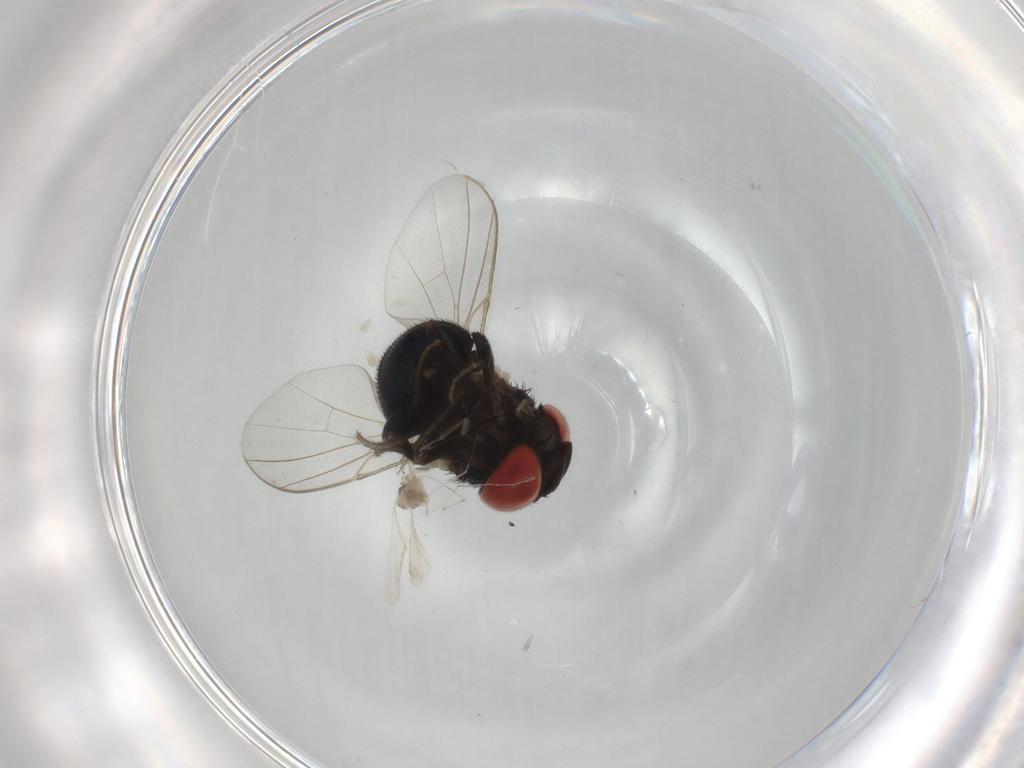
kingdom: Animalia
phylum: Arthropoda
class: Insecta
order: Diptera
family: Cryptochetidae
